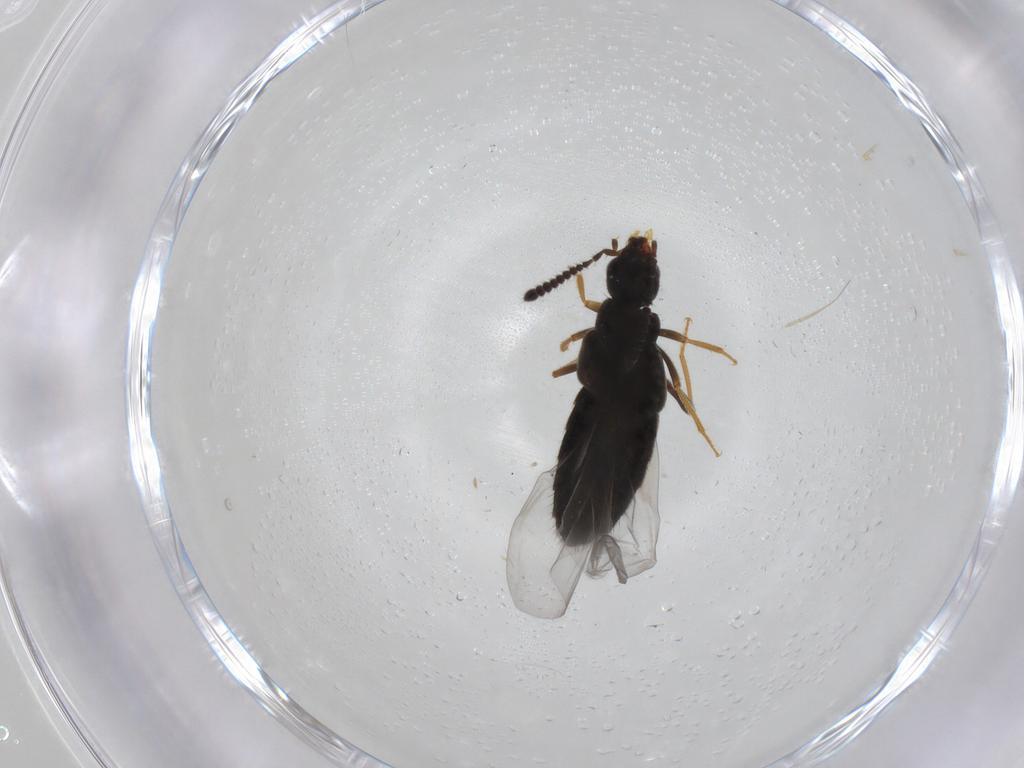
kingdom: Animalia
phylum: Arthropoda
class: Insecta
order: Coleoptera
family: Staphylinidae
